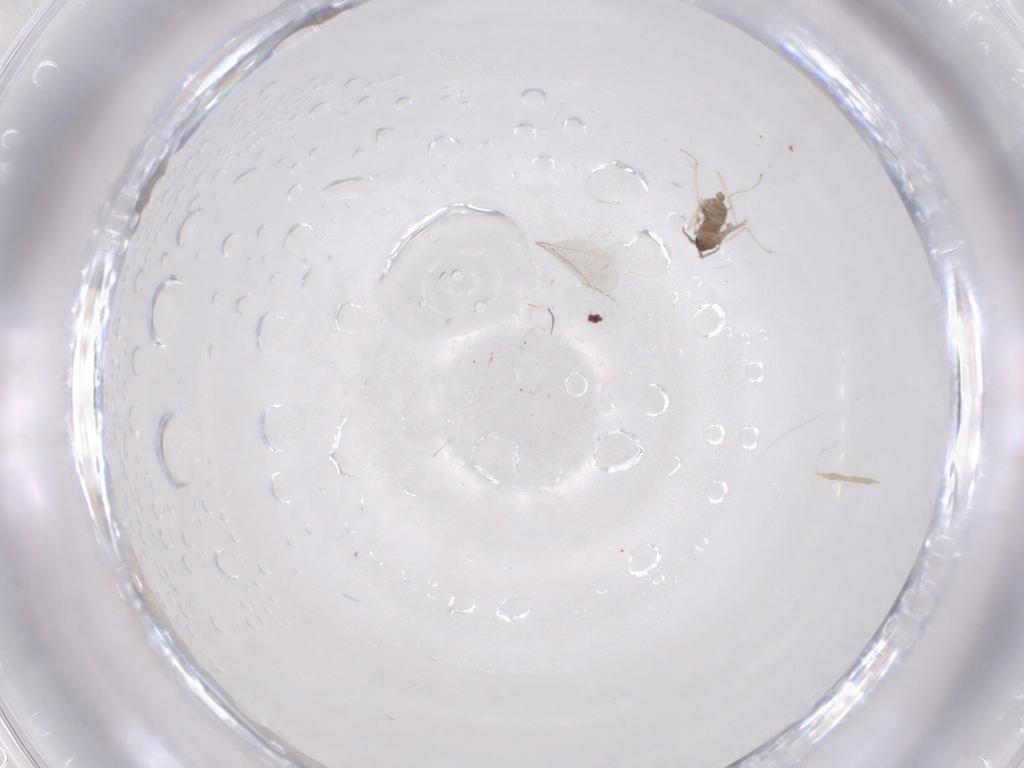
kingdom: Animalia
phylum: Arthropoda
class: Insecta
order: Diptera
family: Cecidomyiidae
